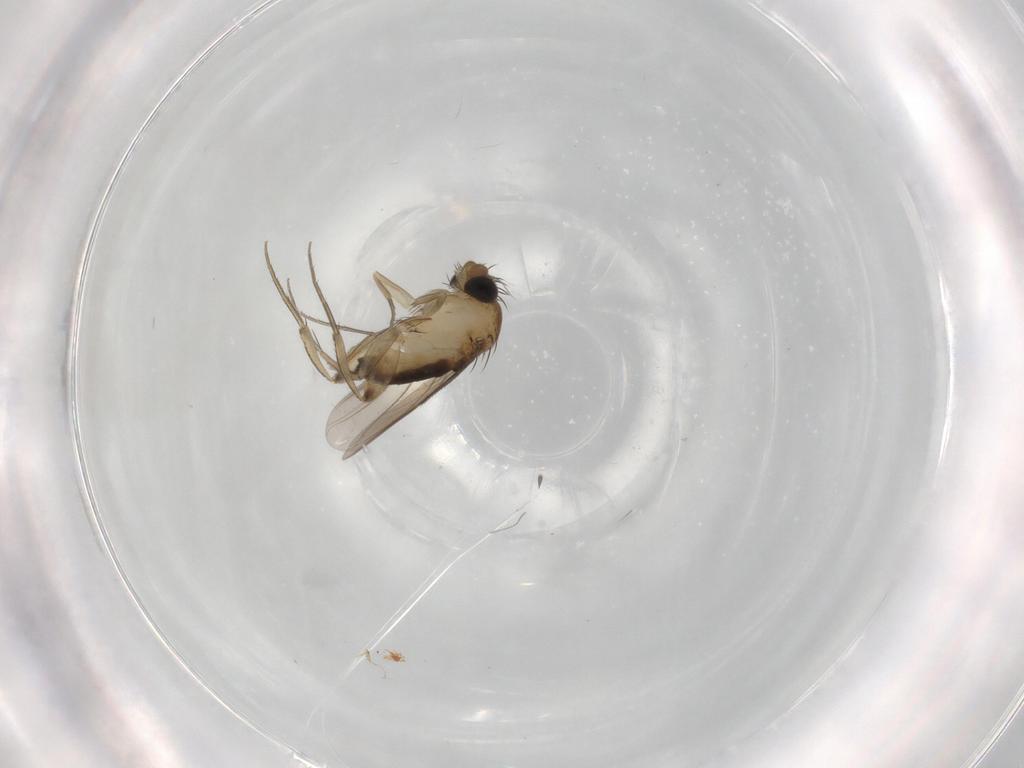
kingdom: Animalia
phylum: Arthropoda
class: Insecta
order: Diptera
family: Phoridae
